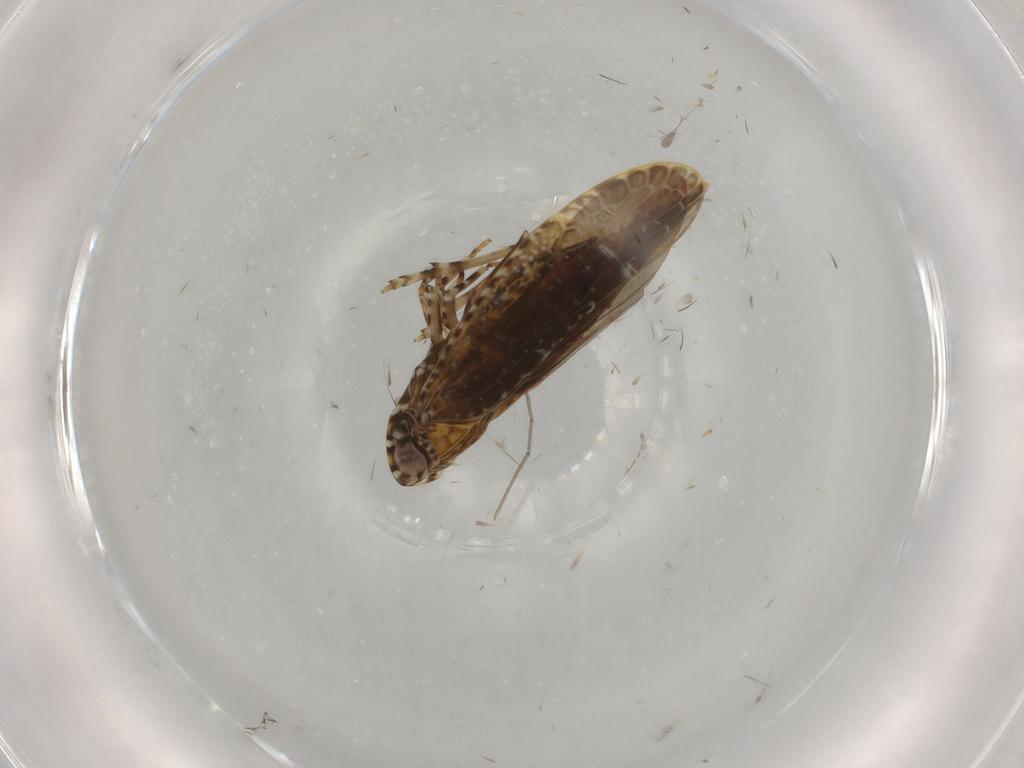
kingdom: Animalia
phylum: Arthropoda
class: Insecta
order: Hemiptera
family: Achilidae
